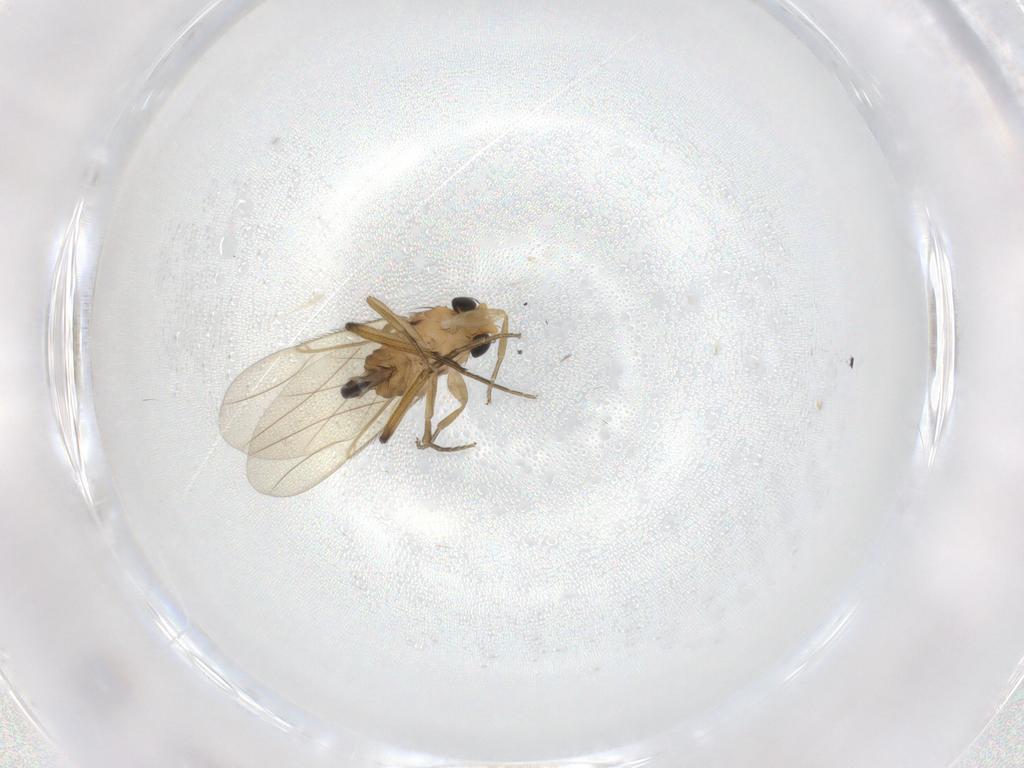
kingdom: Animalia
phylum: Arthropoda
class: Insecta
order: Diptera
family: Phoridae
